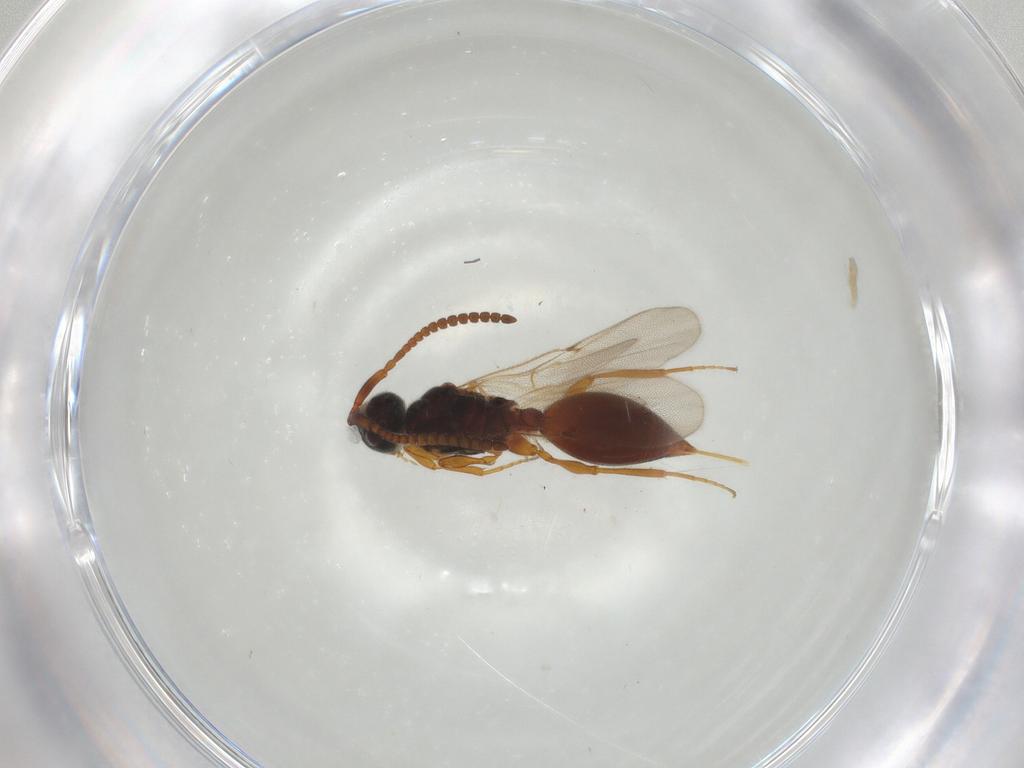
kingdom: Animalia
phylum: Arthropoda
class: Insecta
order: Hymenoptera
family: Diapriidae
